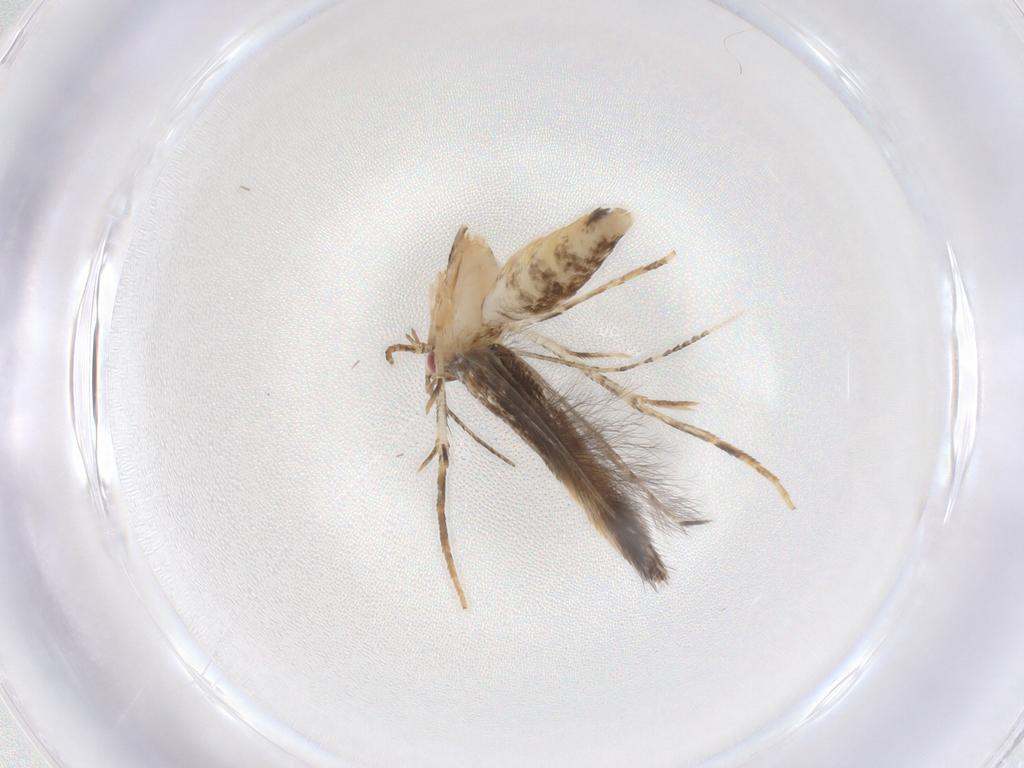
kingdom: Animalia
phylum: Arthropoda
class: Insecta
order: Lepidoptera
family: Cosmopterigidae
